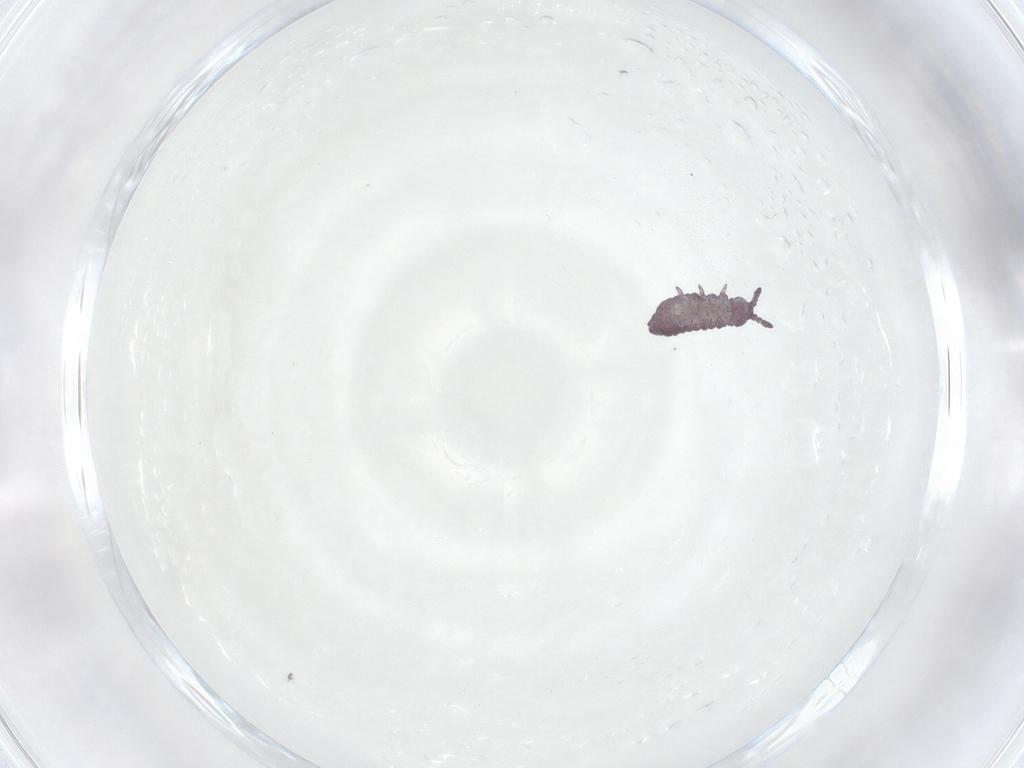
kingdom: Animalia
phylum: Arthropoda
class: Collembola
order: Poduromorpha
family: Hypogastruridae
